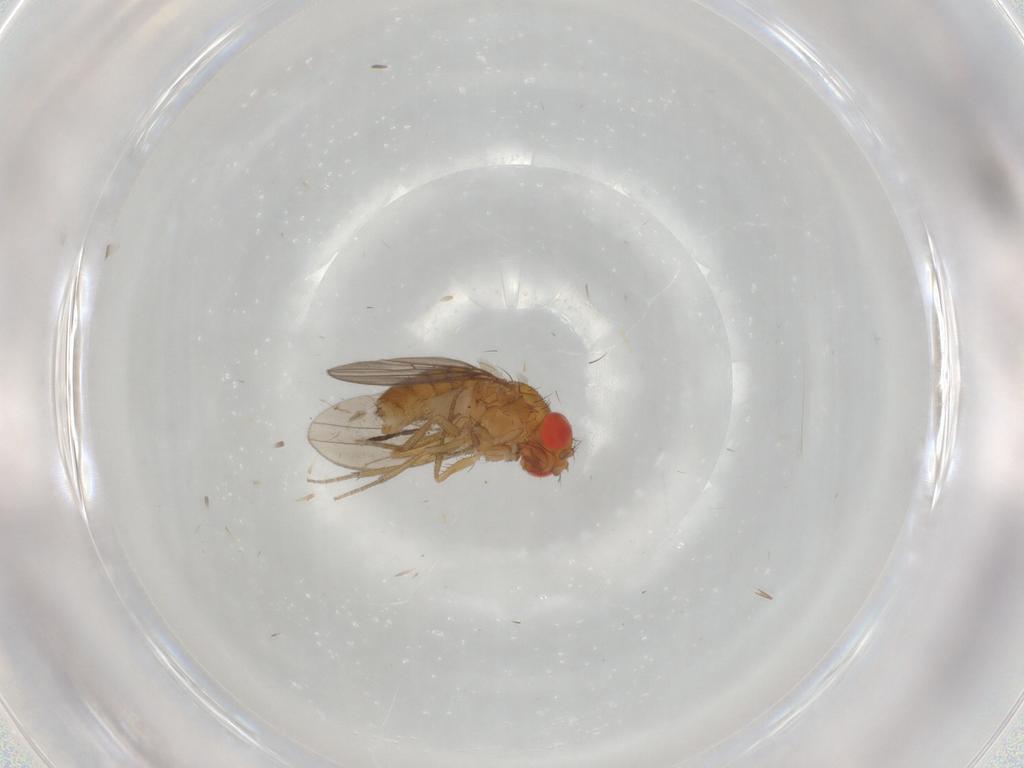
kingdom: Animalia
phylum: Arthropoda
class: Insecta
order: Diptera
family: Drosophilidae
